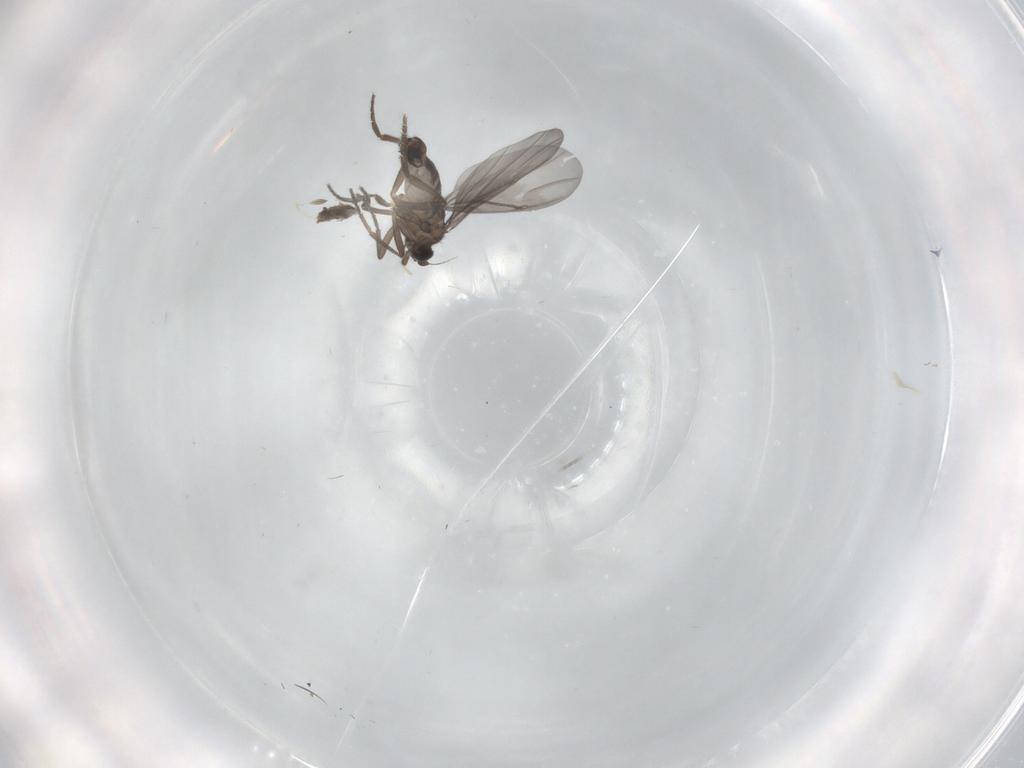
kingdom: Animalia
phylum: Arthropoda
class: Insecta
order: Diptera
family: Phoridae
